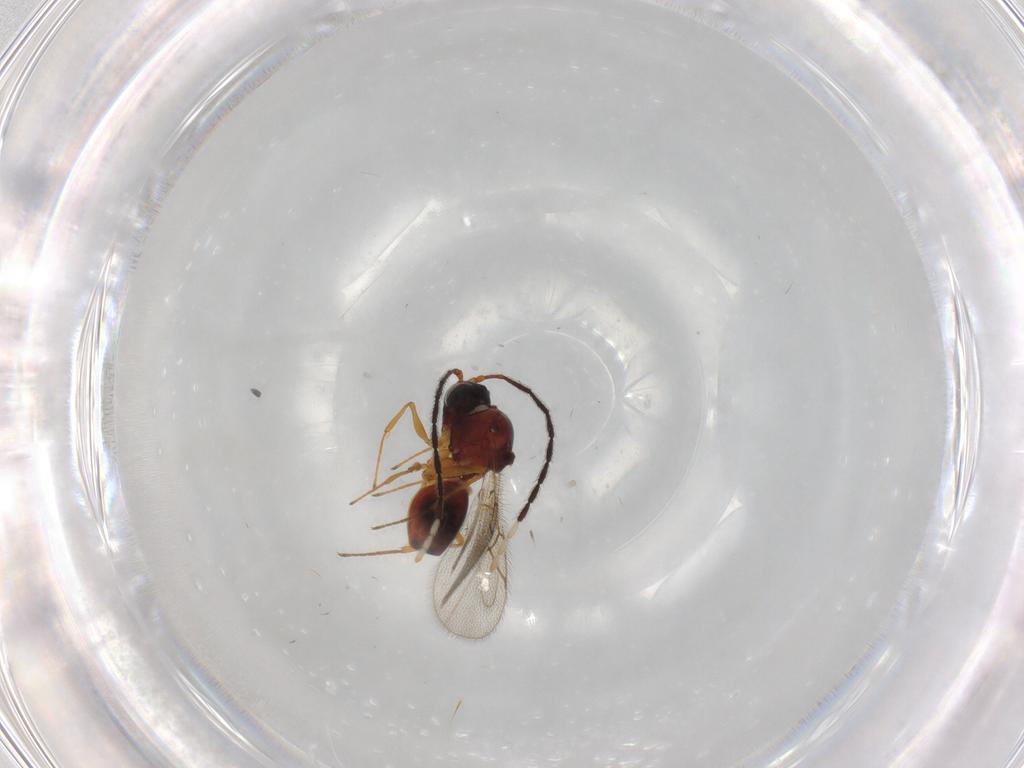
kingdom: Animalia
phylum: Arthropoda
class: Insecta
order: Hymenoptera
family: Figitidae
